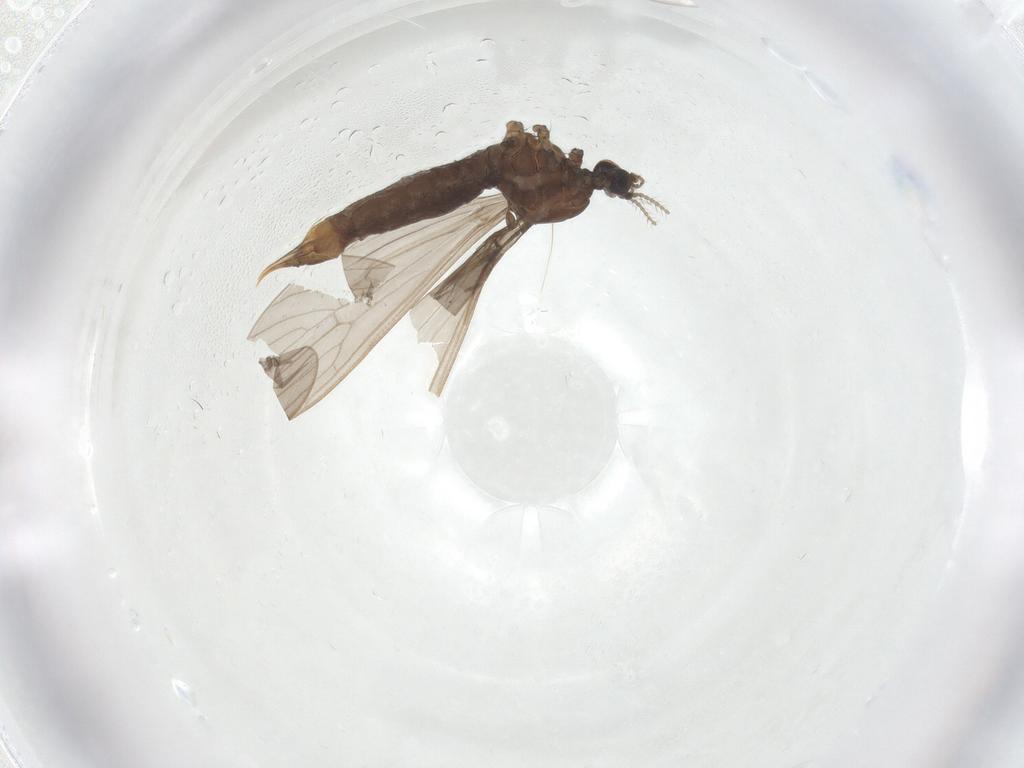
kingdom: Animalia
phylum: Arthropoda
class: Insecta
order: Diptera
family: Limoniidae
